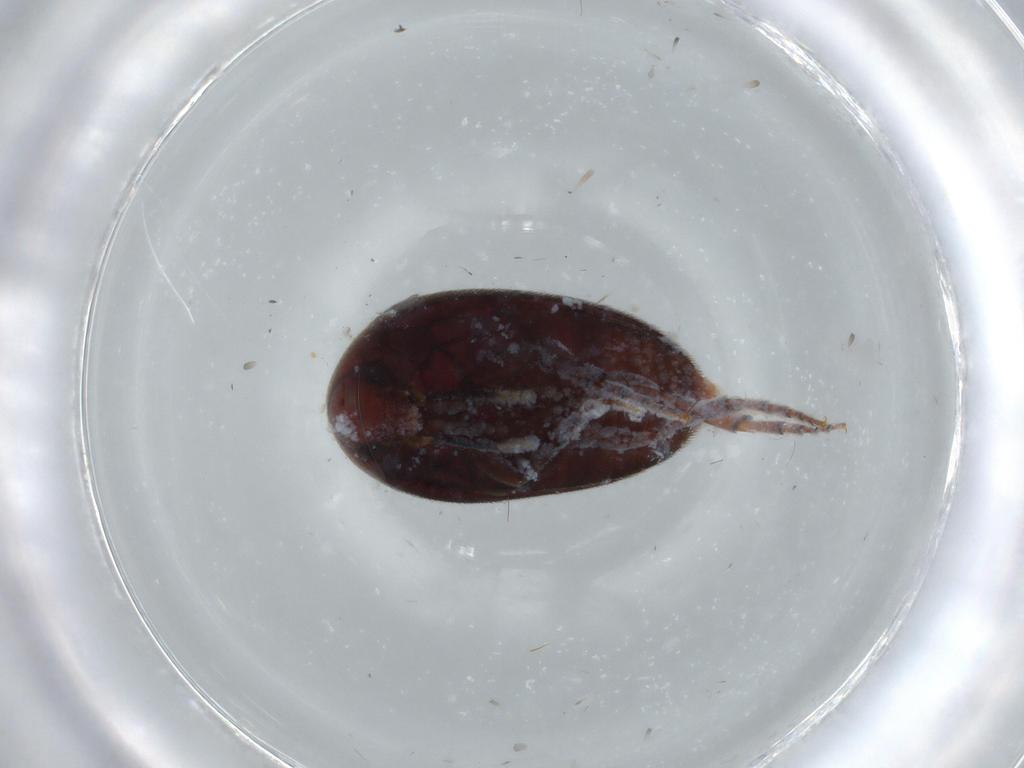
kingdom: Animalia
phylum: Arthropoda
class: Insecta
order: Coleoptera
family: Eucinetidae
